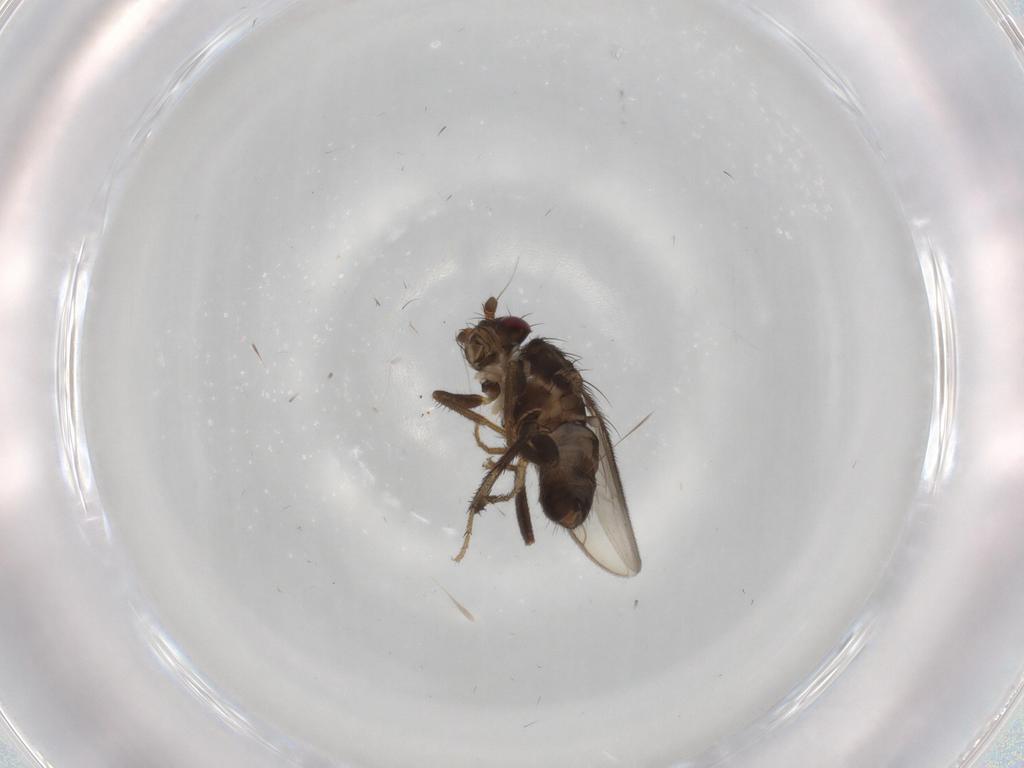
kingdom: Animalia
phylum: Arthropoda
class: Insecta
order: Diptera
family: Sphaeroceridae
